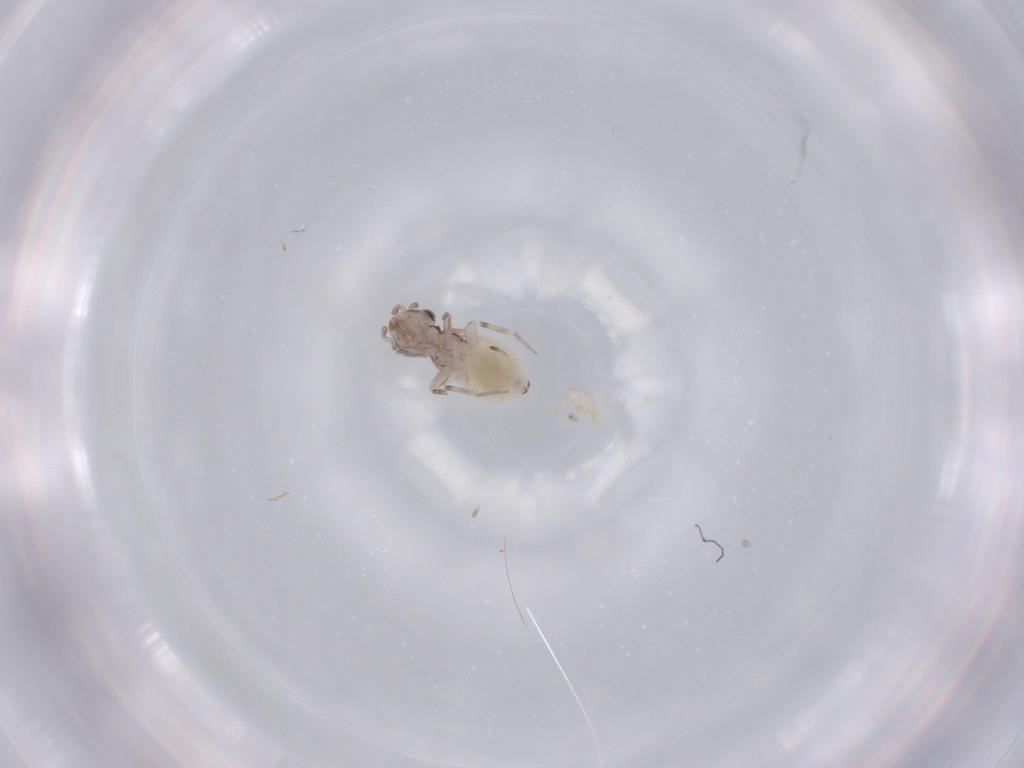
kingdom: Animalia
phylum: Arthropoda
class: Insecta
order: Psocodea
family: Lepidopsocidae
